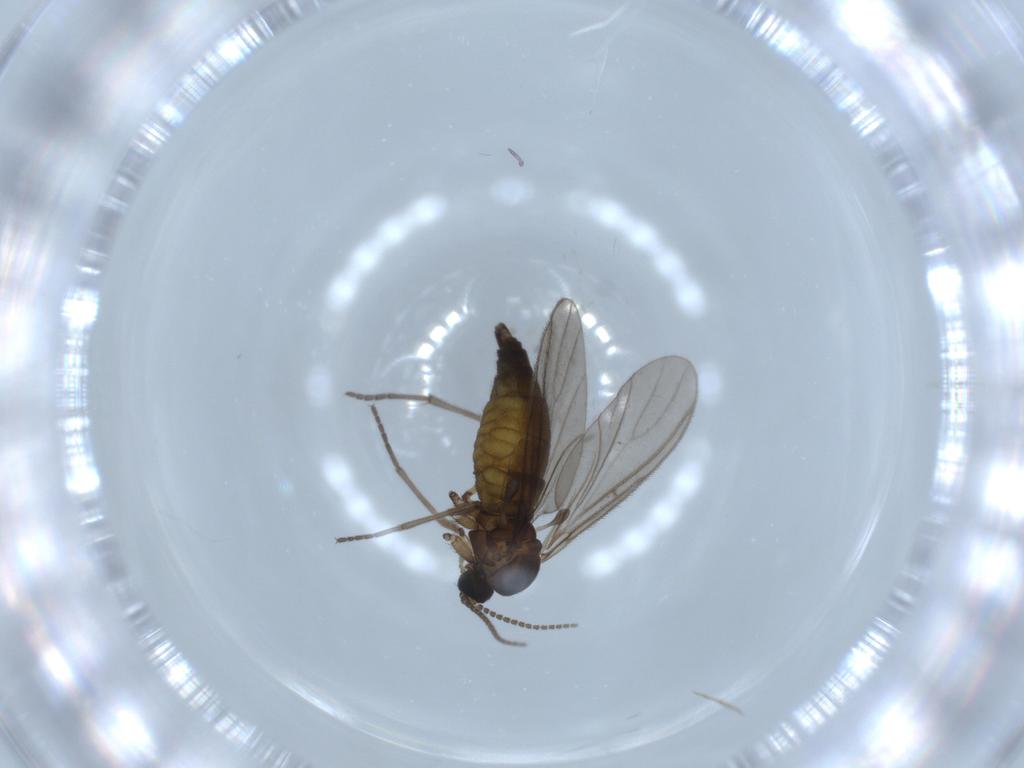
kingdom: Animalia
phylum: Arthropoda
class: Insecta
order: Diptera
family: Sciaridae
